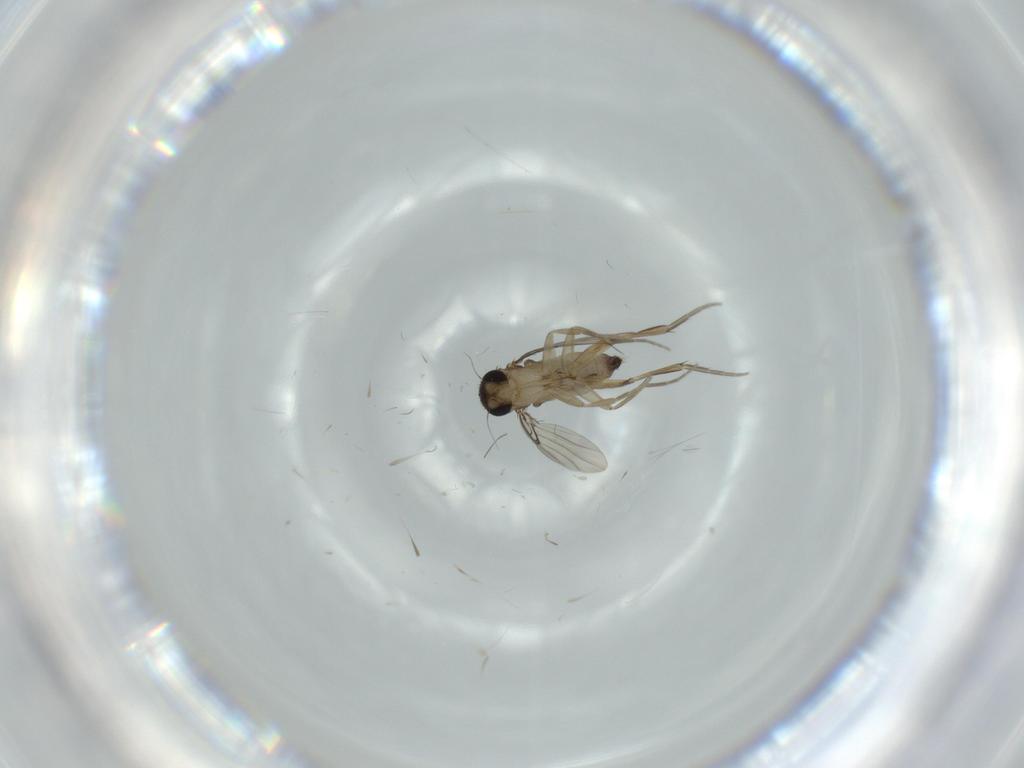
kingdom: Animalia
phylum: Arthropoda
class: Insecta
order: Diptera
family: Phoridae
